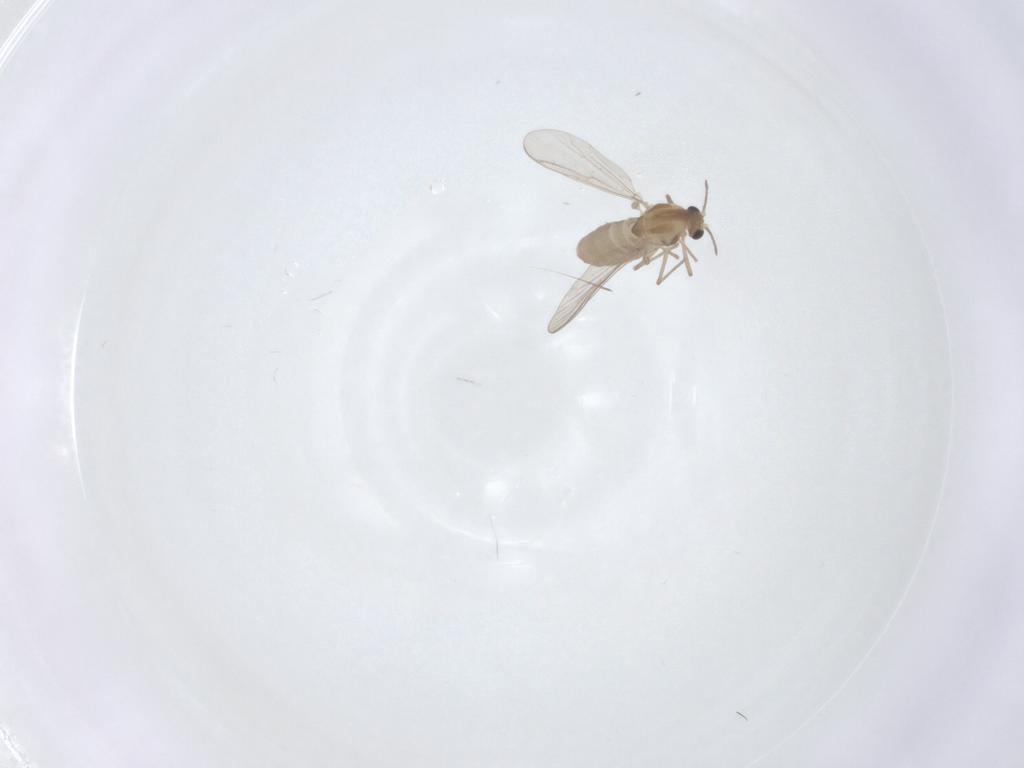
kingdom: Animalia
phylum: Arthropoda
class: Insecta
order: Diptera
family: Chironomidae
